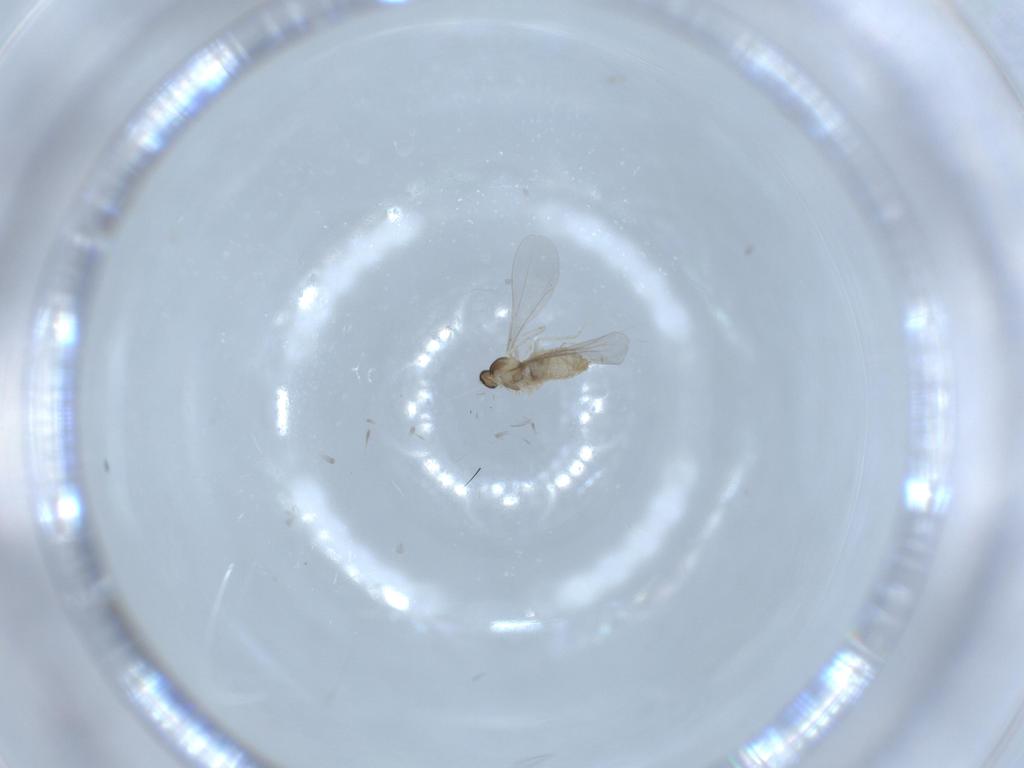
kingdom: Animalia
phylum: Arthropoda
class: Insecta
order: Diptera
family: Cecidomyiidae
